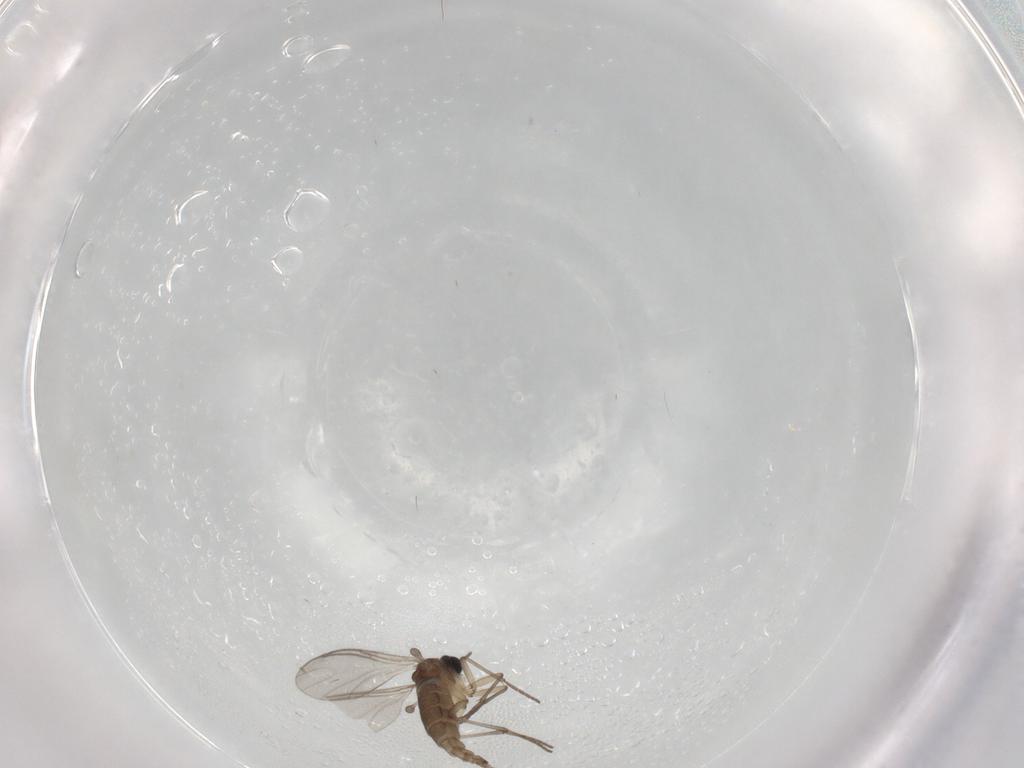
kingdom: Animalia
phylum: Arthropoda
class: Insecta
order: Diptera
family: Sciaridae
